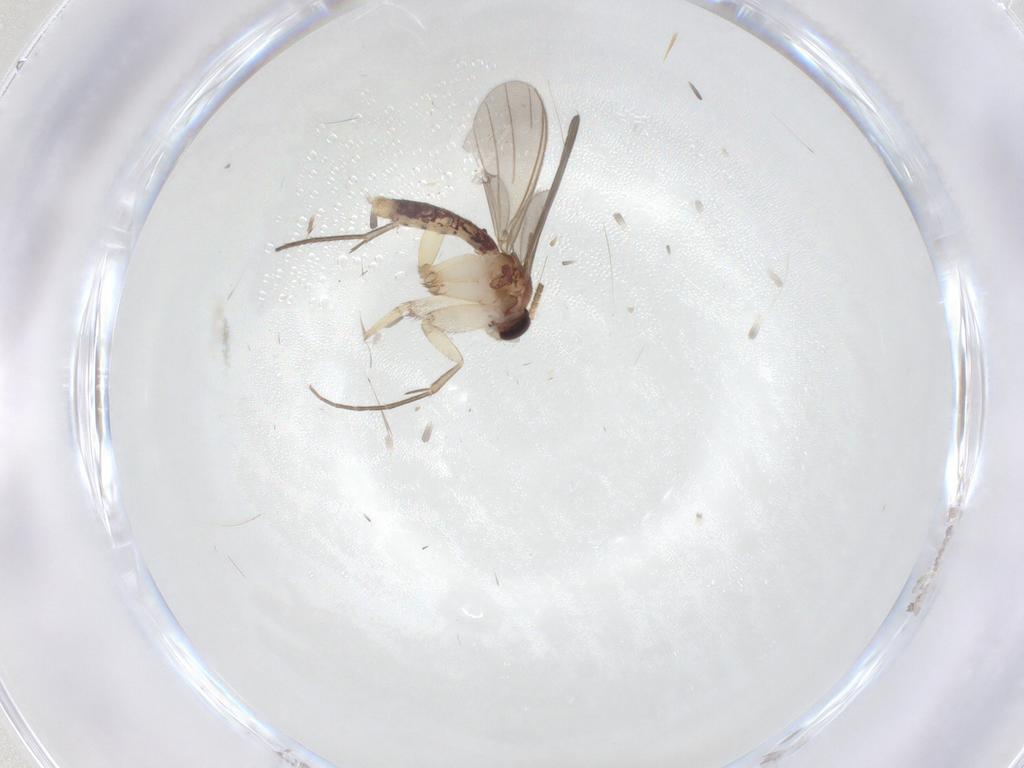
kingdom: Animalia
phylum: Arthropoda
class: Insecta
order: Diptera
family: Mycetophilidae
